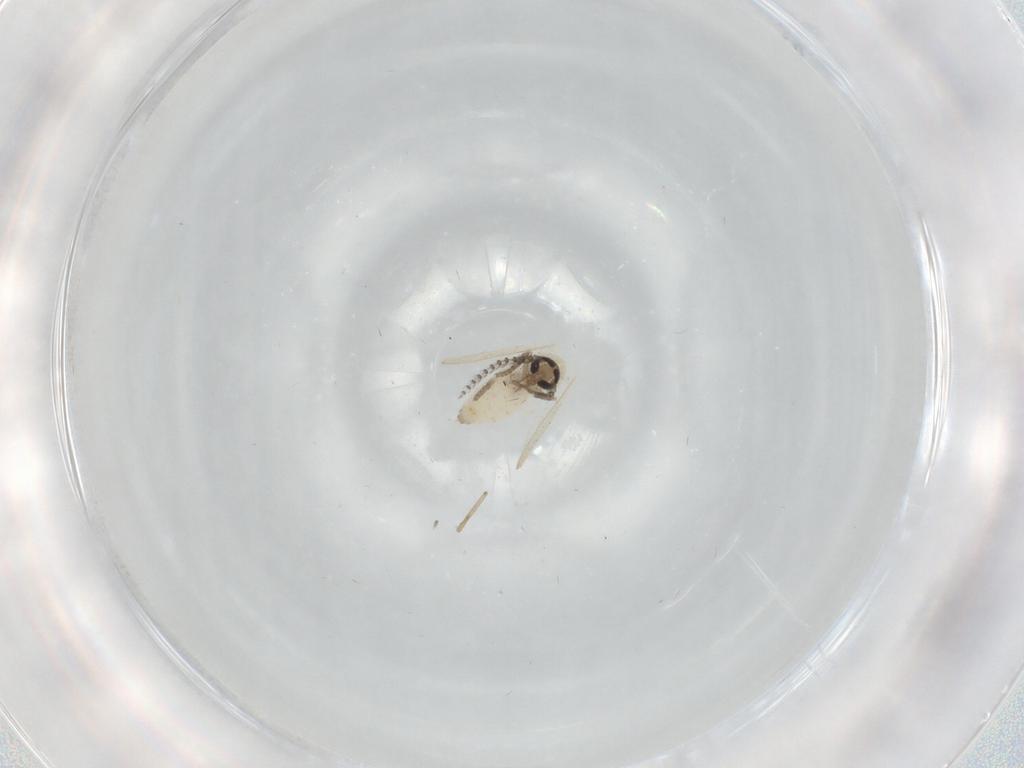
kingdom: Animalia
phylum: Arthropoda
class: Insecta
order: Diptera
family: Psychodidae
